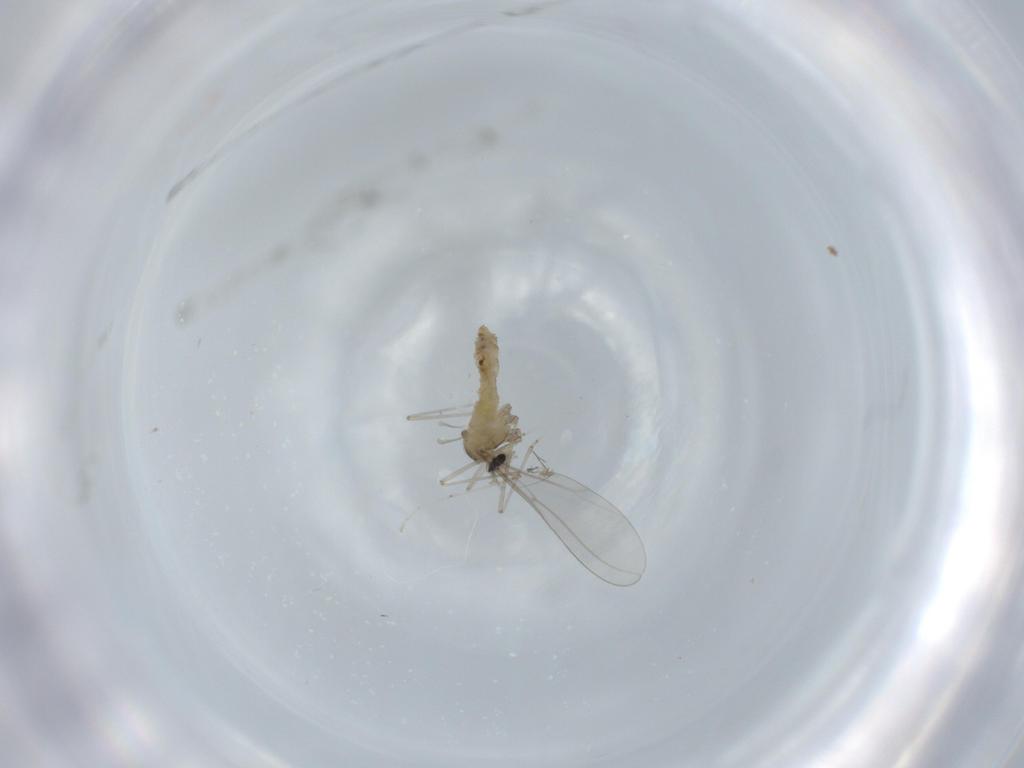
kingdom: Animalia
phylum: Arthropoda
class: Insecta
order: Diptera
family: Cecidomyiidae
